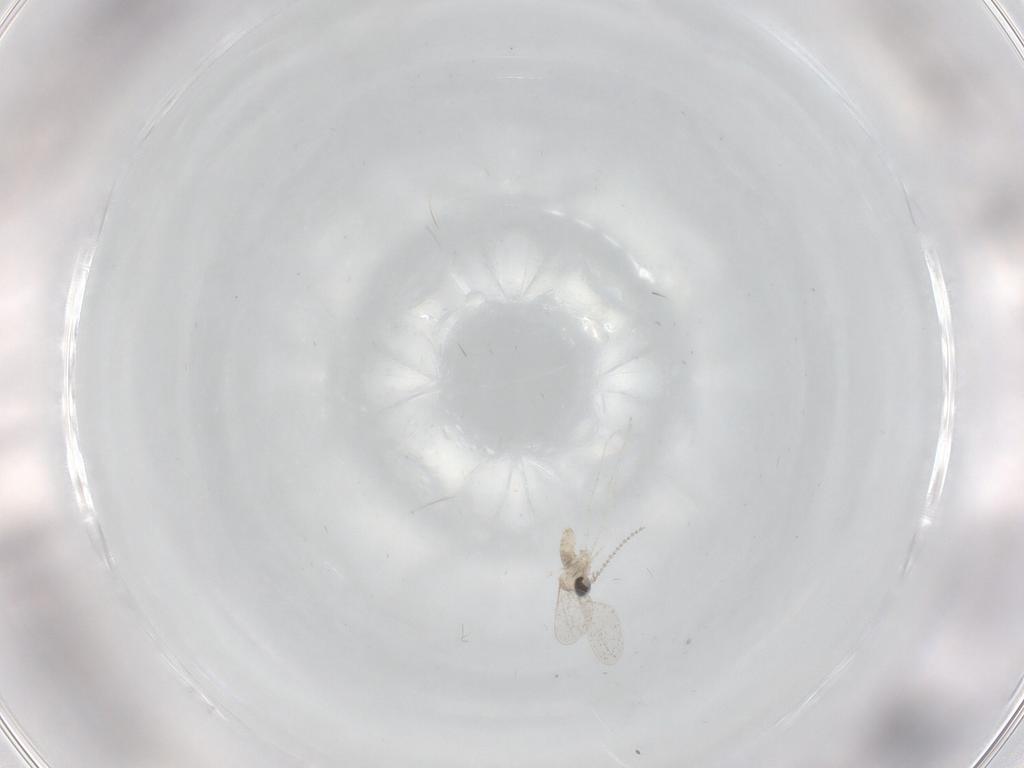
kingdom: Animalia
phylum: Arthropoda
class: Insecta
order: Diptera
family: Cecidomyiidae
